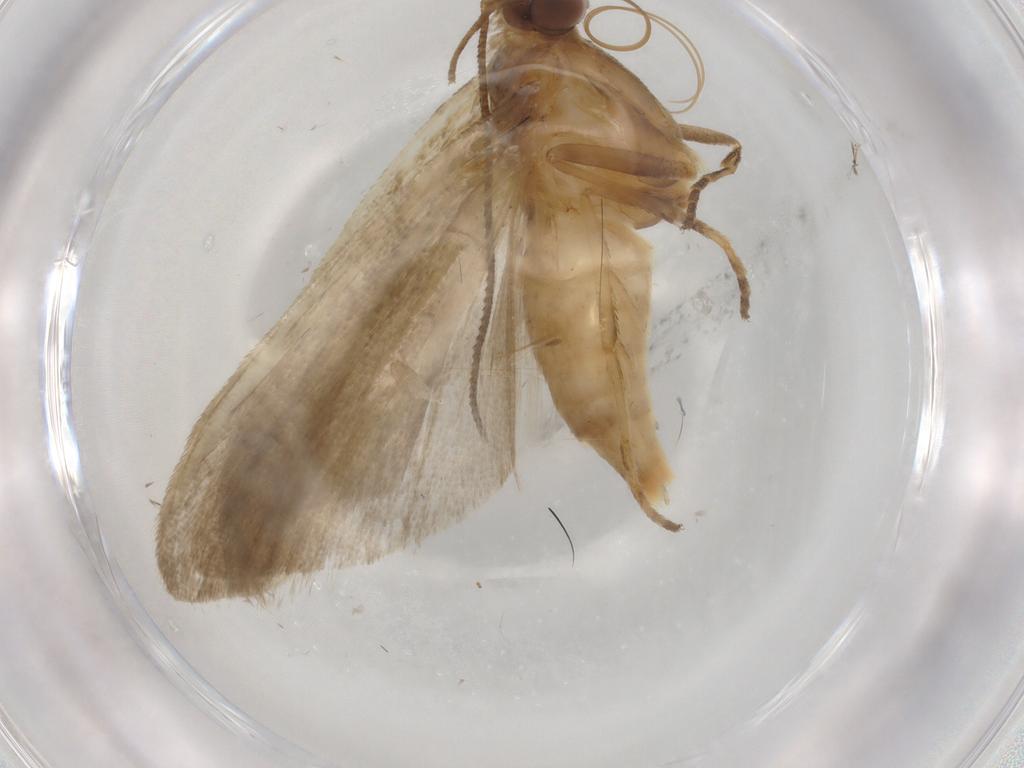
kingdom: Animalia
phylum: Arthropoda
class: Insecta
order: Lepidoptera
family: Noctuidae
